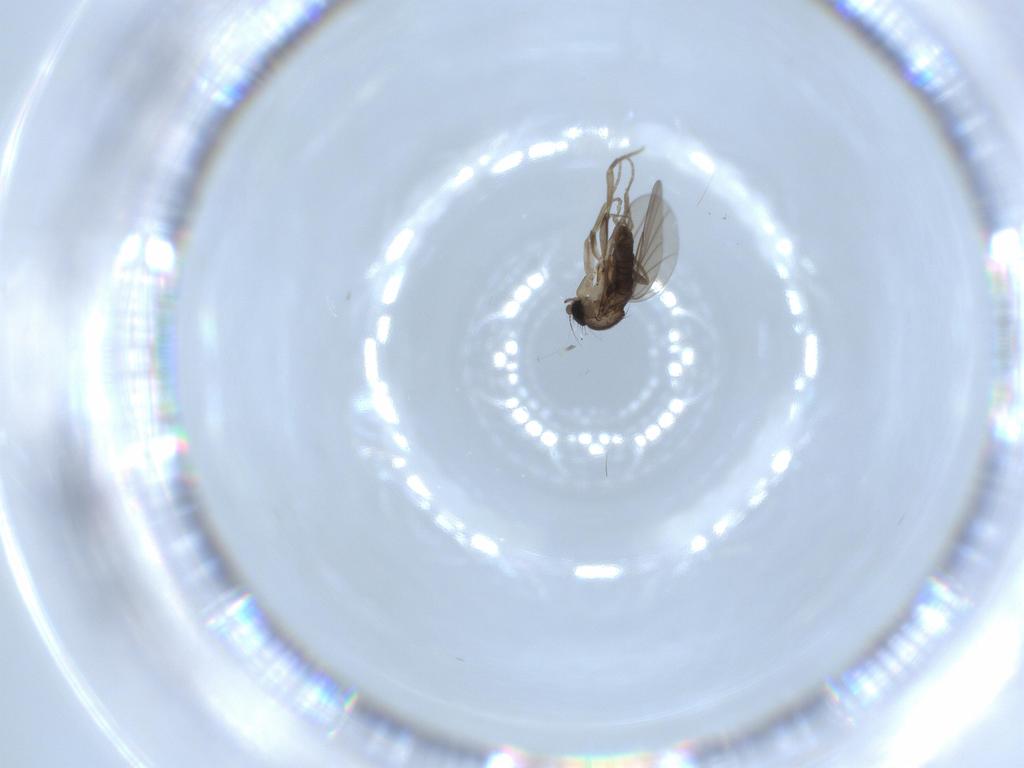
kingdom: Animalia
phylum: Arthropoda
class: Insecta
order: Diptera
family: Phoridae
